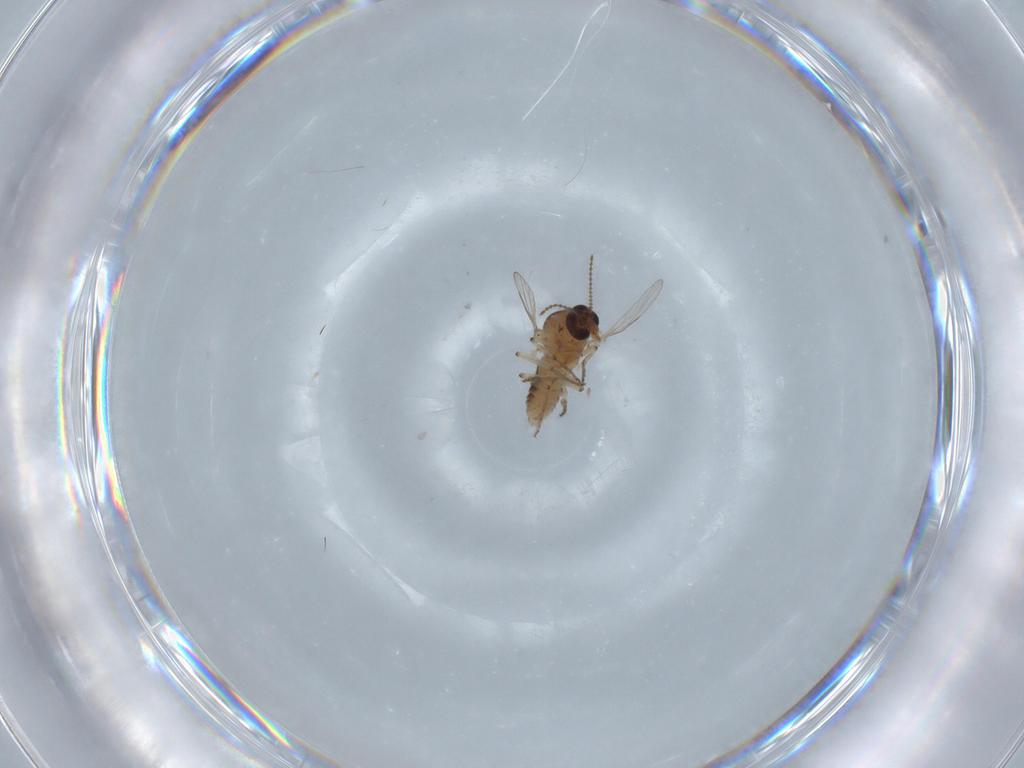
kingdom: Animalia
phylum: Arthropoda
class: Insecta
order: Diptera
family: Ceratopogonidae
